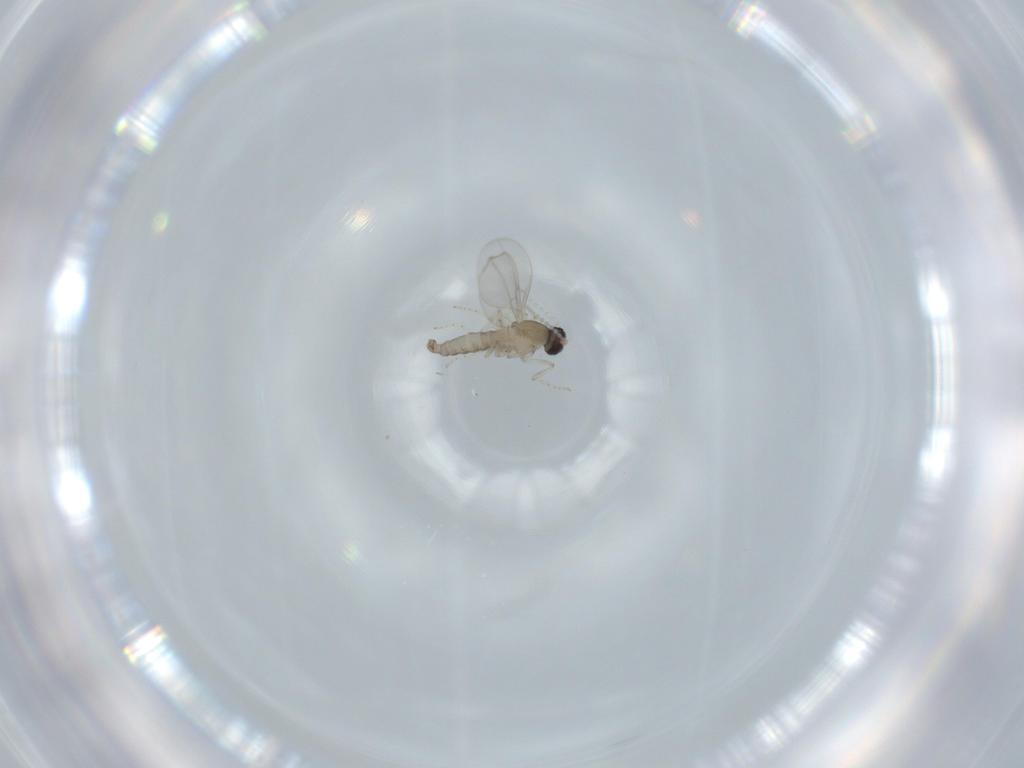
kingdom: Animalia
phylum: Arthropoda
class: Insecta
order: Diptera
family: Cecidomyiidae
